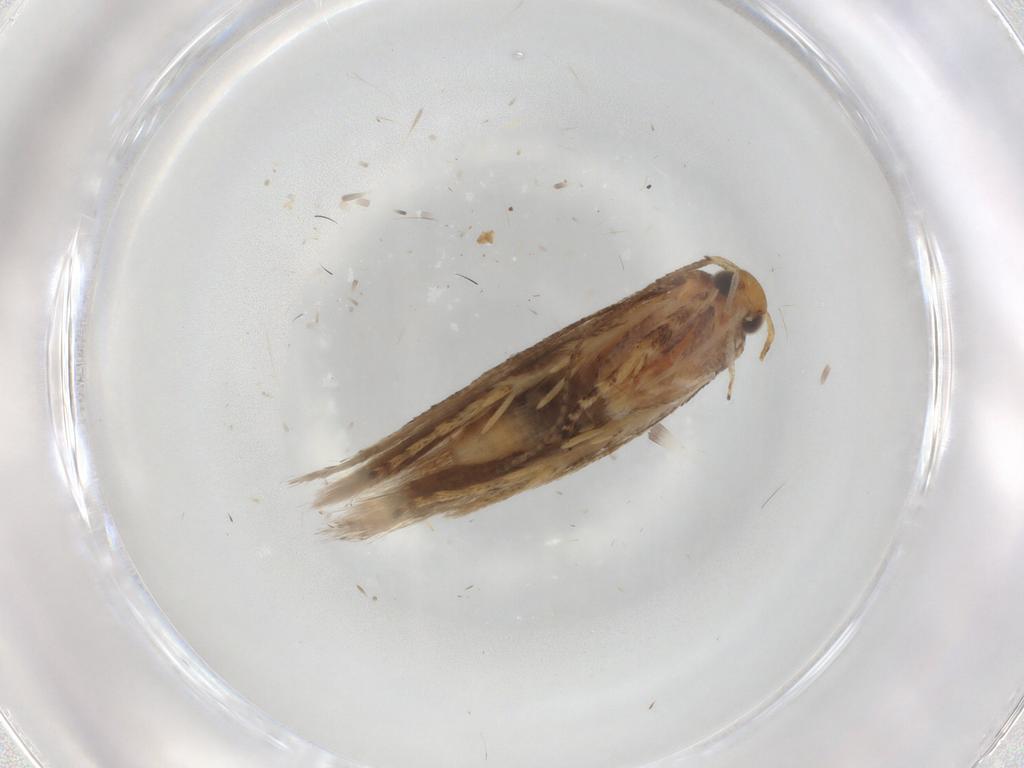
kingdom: Animalia
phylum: Arthropoda
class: Insecta
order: Lepidoptera
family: Gelechiidae
